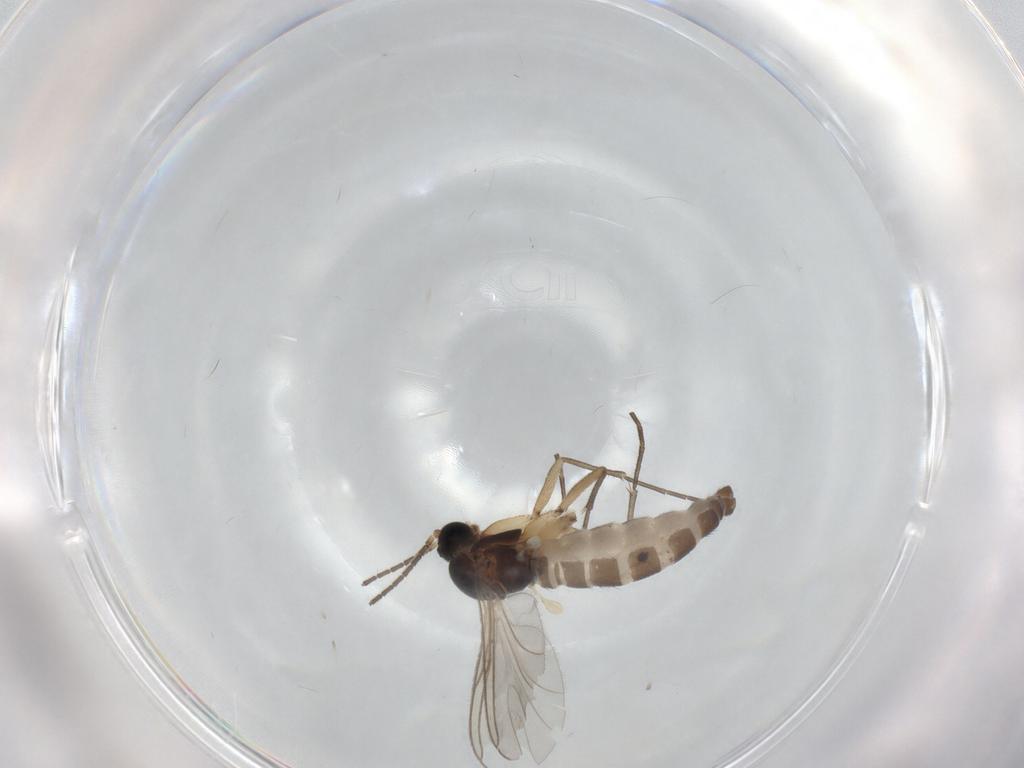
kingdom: Animalia
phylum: Arthropoda
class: Insecta
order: Diptera
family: Sciaridae
